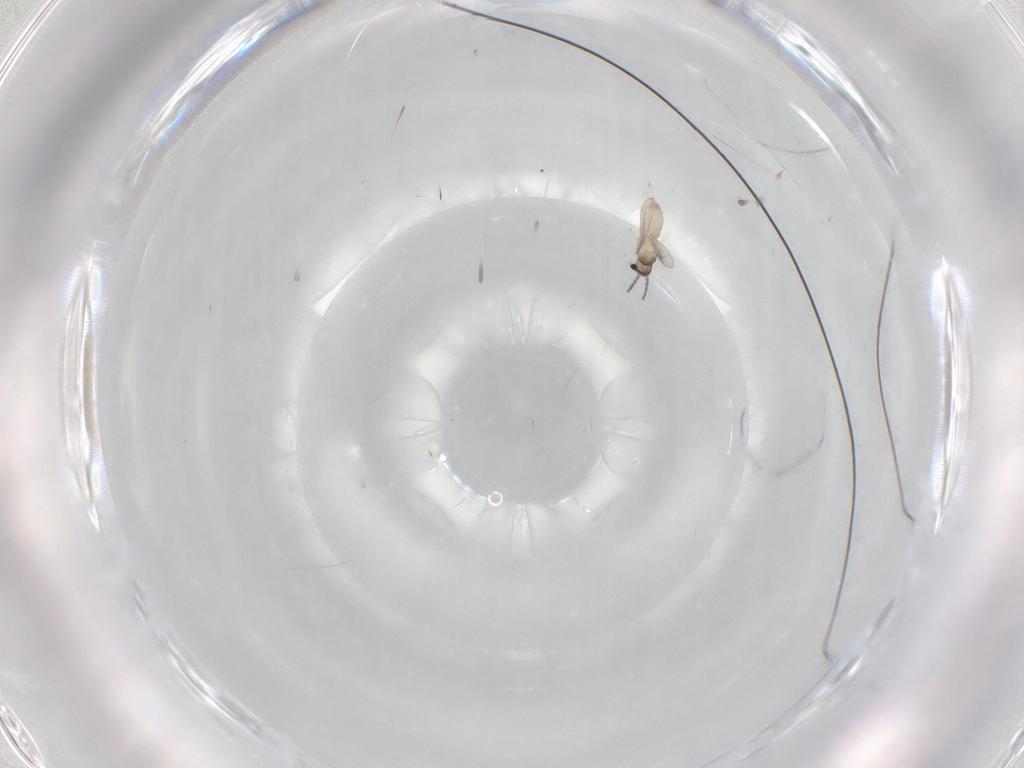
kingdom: Animalia
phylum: Arthropoda
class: Insecta
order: Diptera
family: Cecidomyiidae
